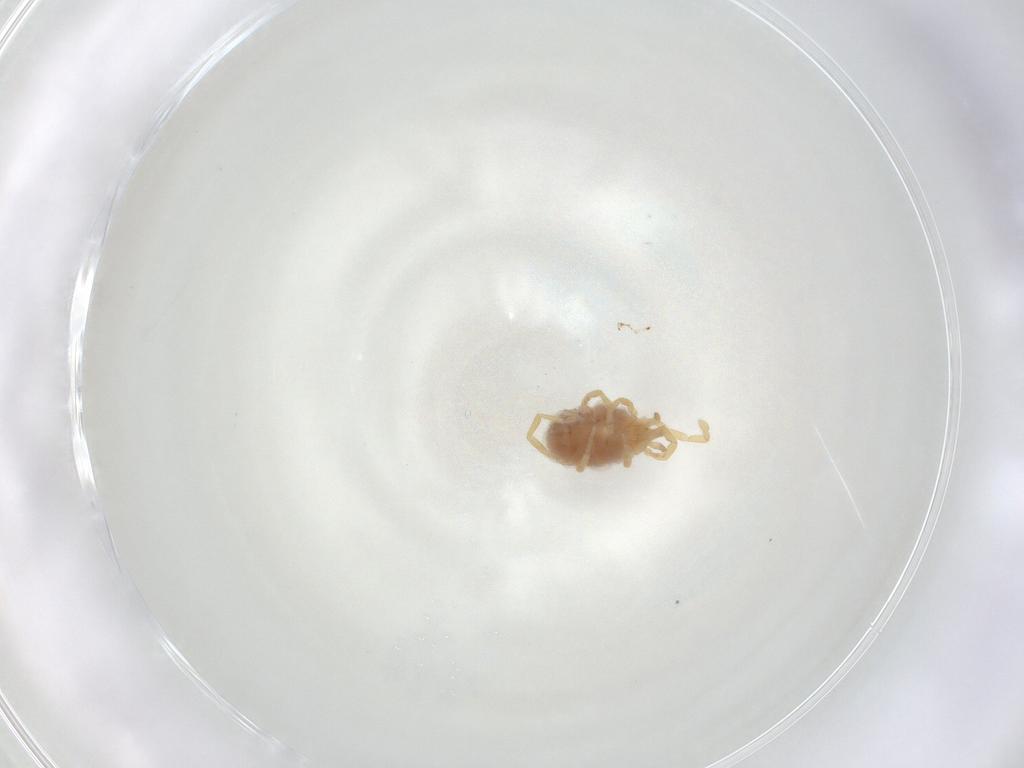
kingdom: Animalia
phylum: Arthropoda
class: Arachnida
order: Trombidiformes
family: Erythraeidae
